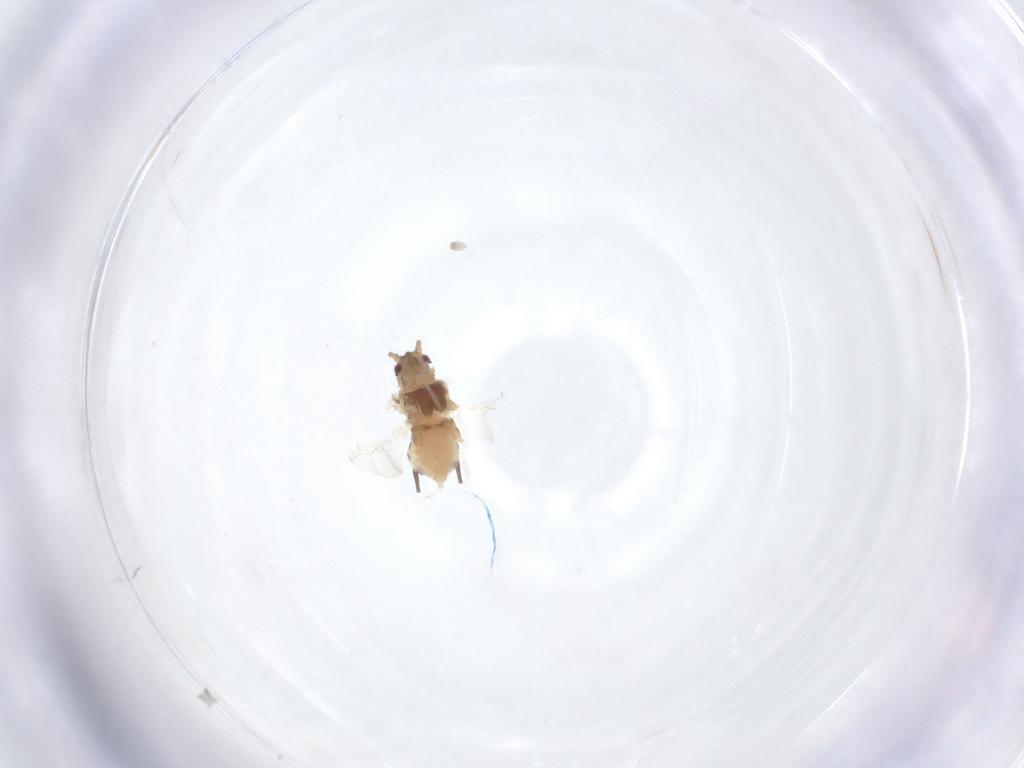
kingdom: Animalia
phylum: Arthropoda
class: Insecta
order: Hemiptera
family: Aphididae
